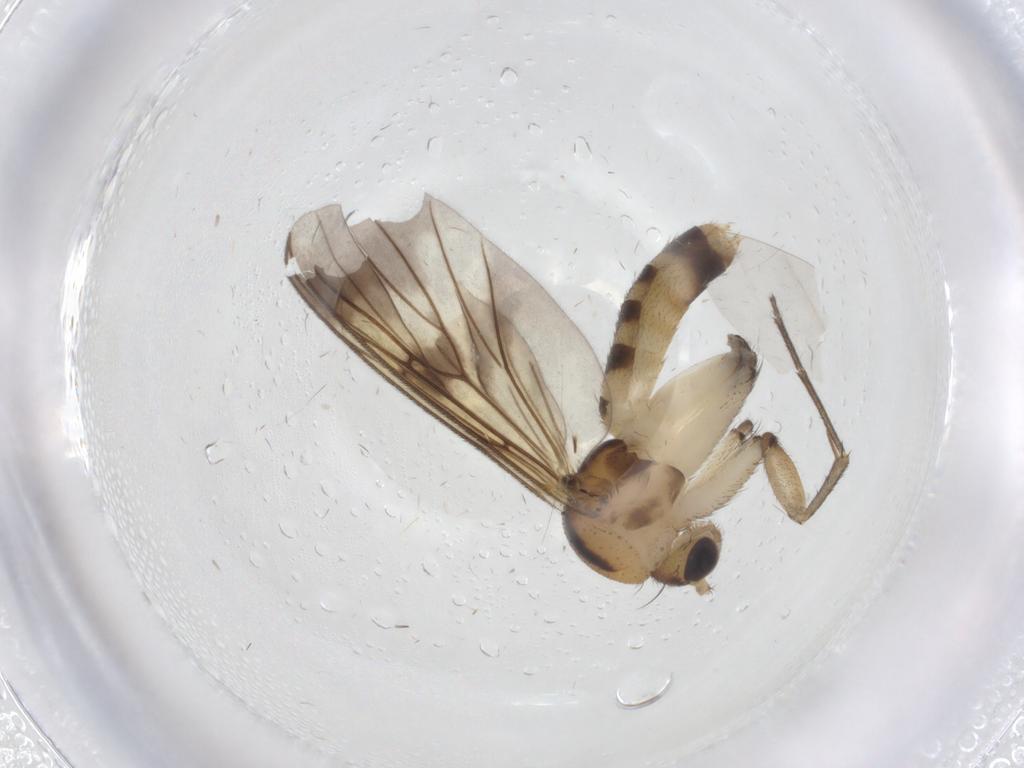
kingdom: Animalia
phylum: Arthropoda
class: Insecta
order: Diptera
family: Mycetophilidae
